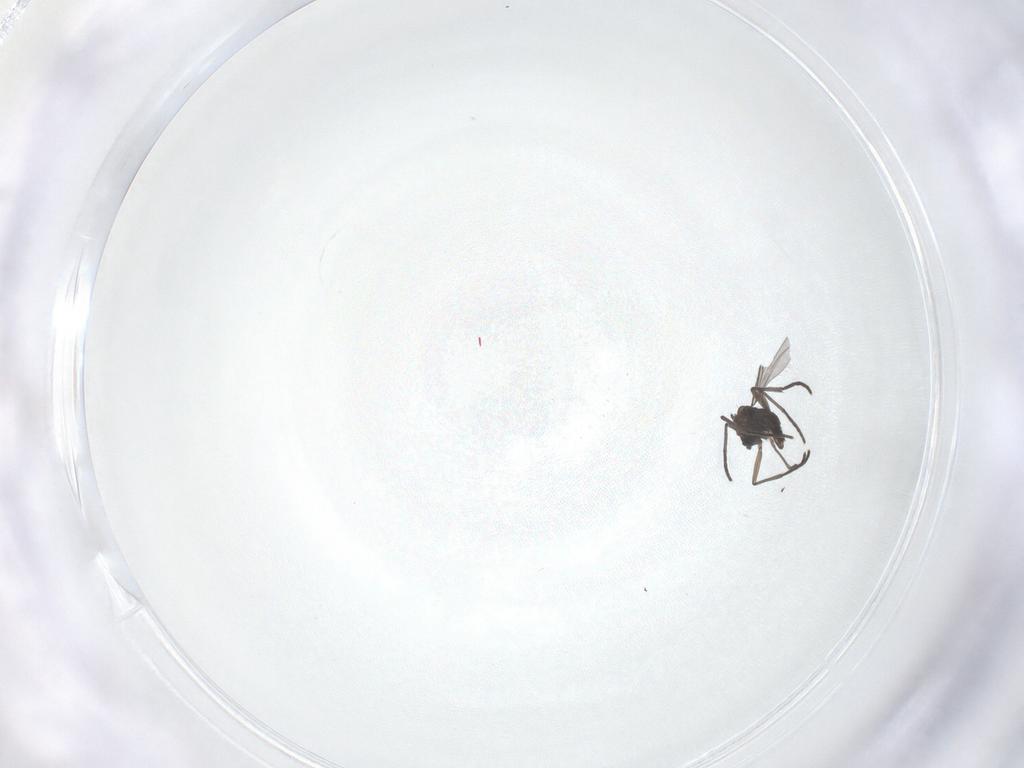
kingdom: Animalia
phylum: Arthropoda
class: Insecta
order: Diptera
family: Sciaridae
